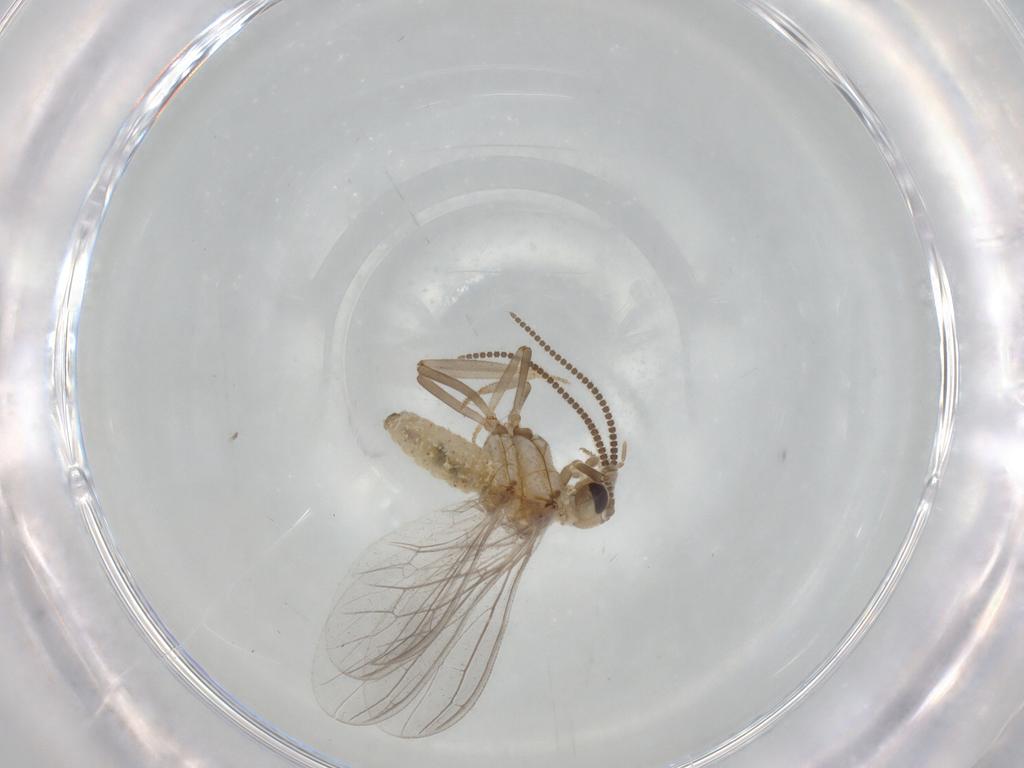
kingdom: Animalia
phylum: Arthropoda
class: Insecta
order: Neuroptera
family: Coniopterygidae
